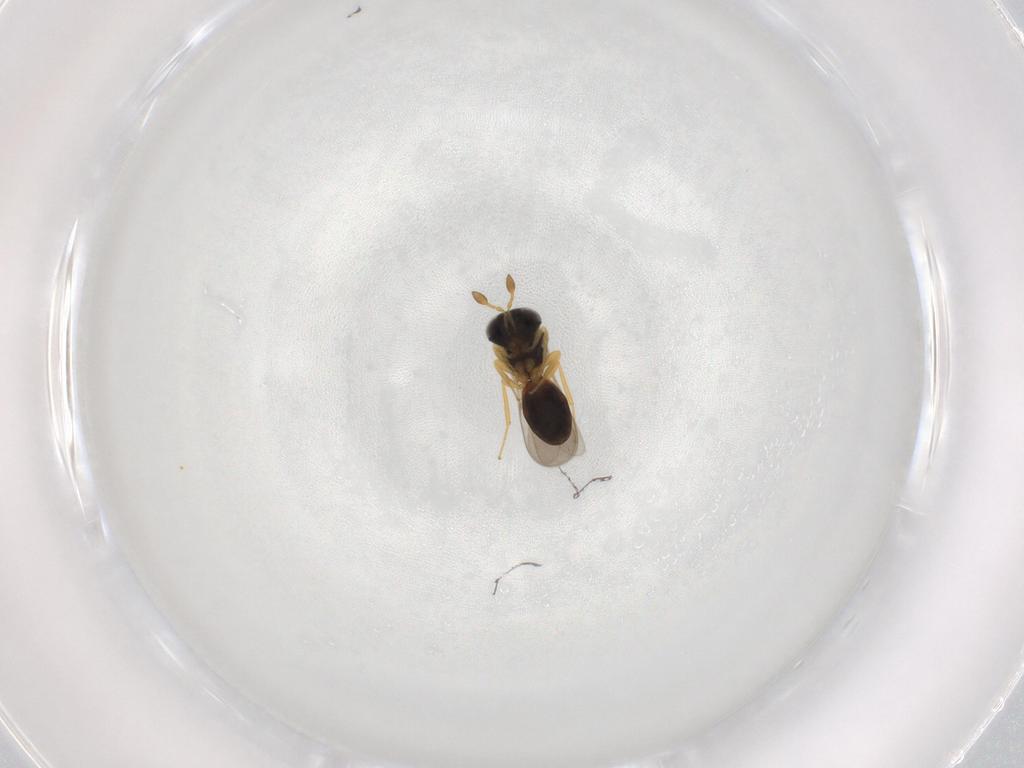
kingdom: Animalia
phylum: Arthropoda
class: Insecta
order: Hymenoptera
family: Scelionidae
